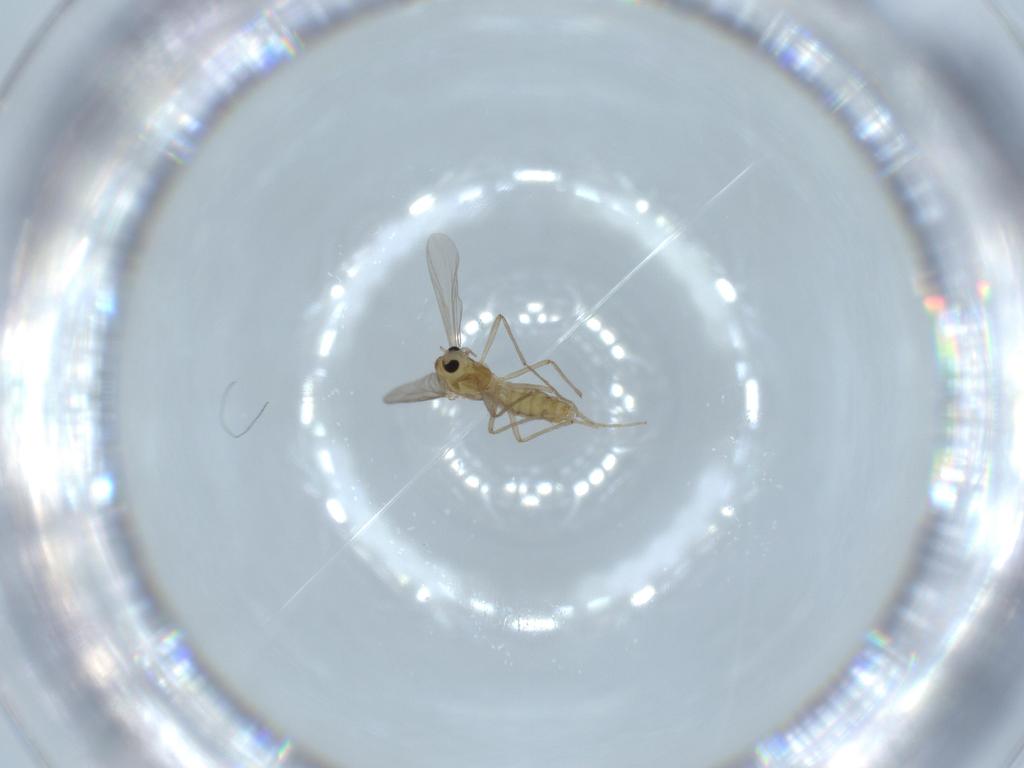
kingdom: Animalia
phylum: Arthropoda
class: Insecta
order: Diptera
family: Chironomidae
